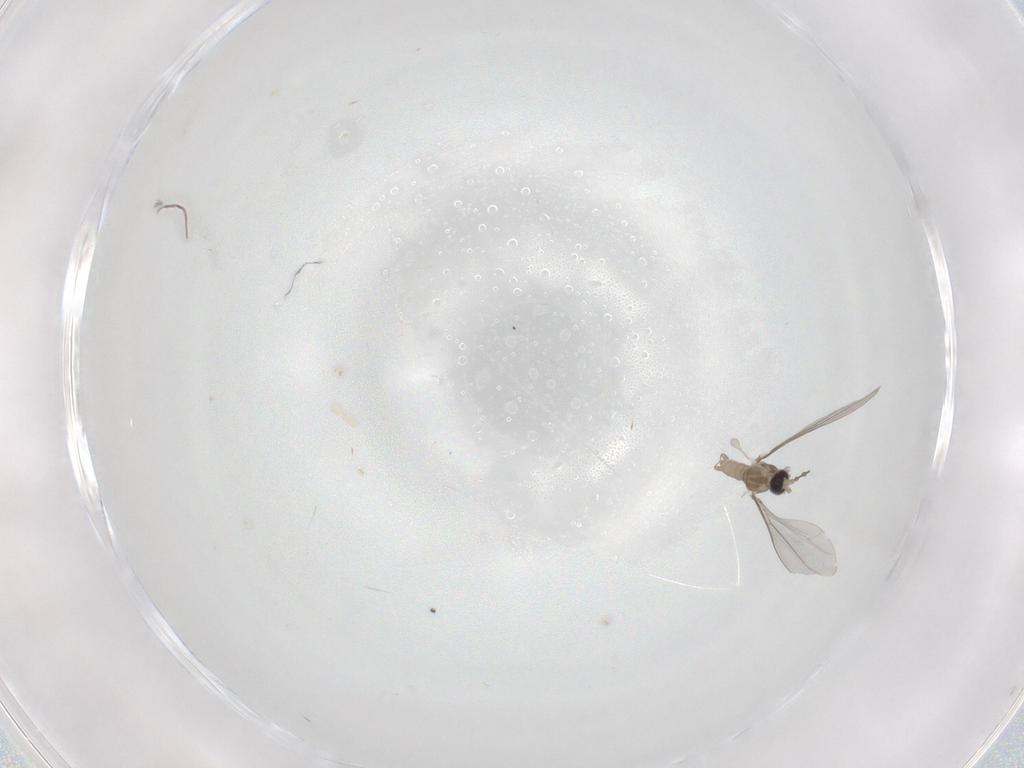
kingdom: Animalia
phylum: Arthropoda
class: Insecta
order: Diptera
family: Cecidomyiidae
